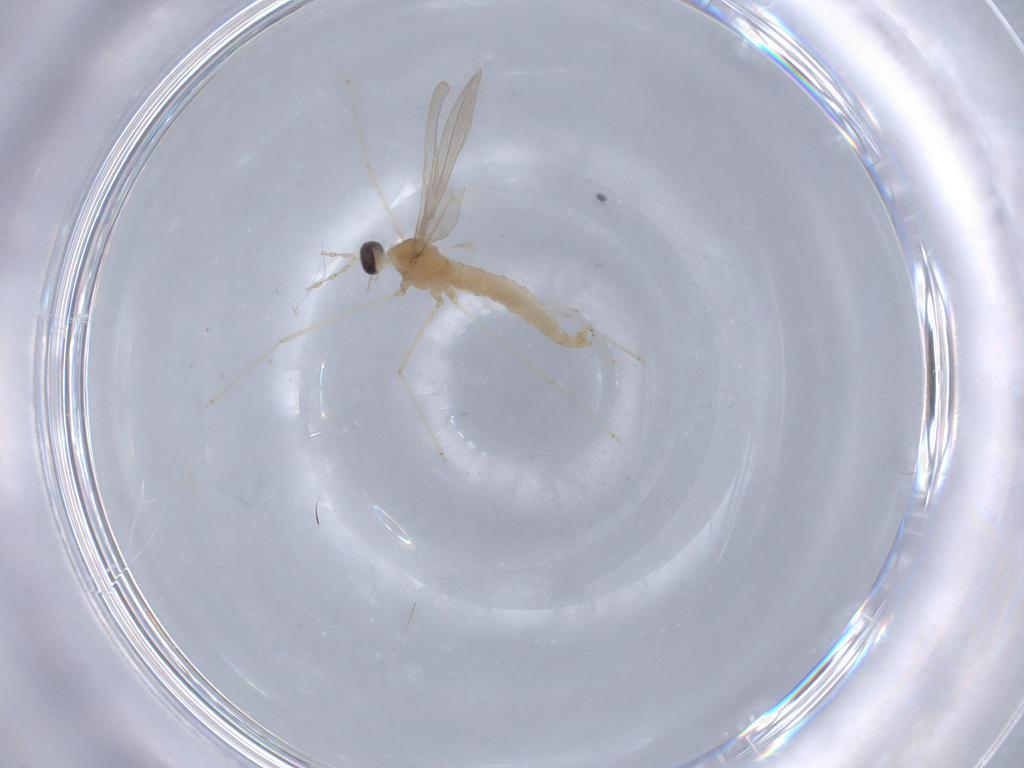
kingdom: Animalia
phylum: Arthropoda
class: Insecta
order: Diptera
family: Cecidomyiidae
